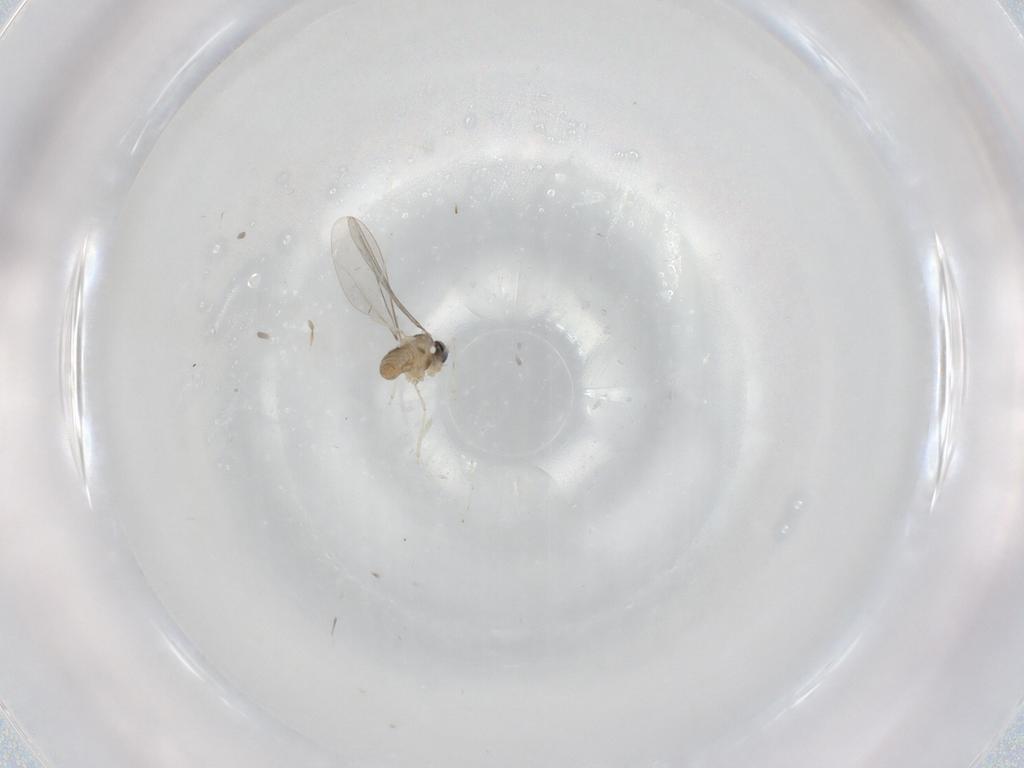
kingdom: Animalia
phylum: Arthropoda
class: Insecta
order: Diptera
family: Cecidomyiidae
